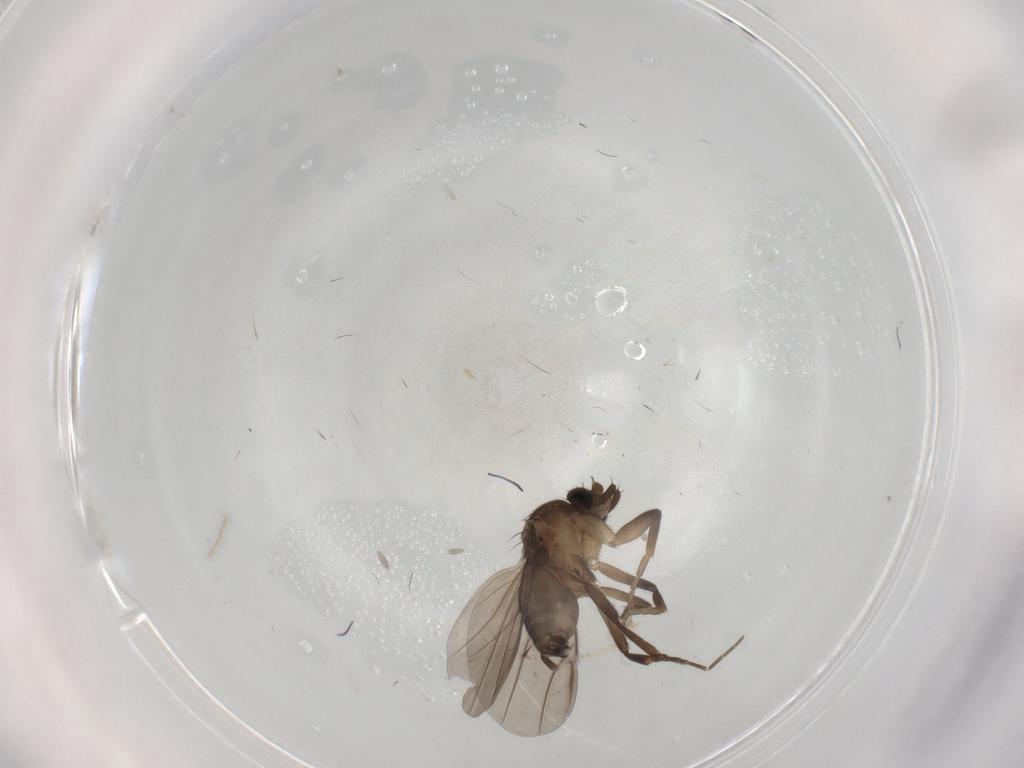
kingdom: Animalia
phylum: Arthropoda
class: Insecta
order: Diptera
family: Phoridae
